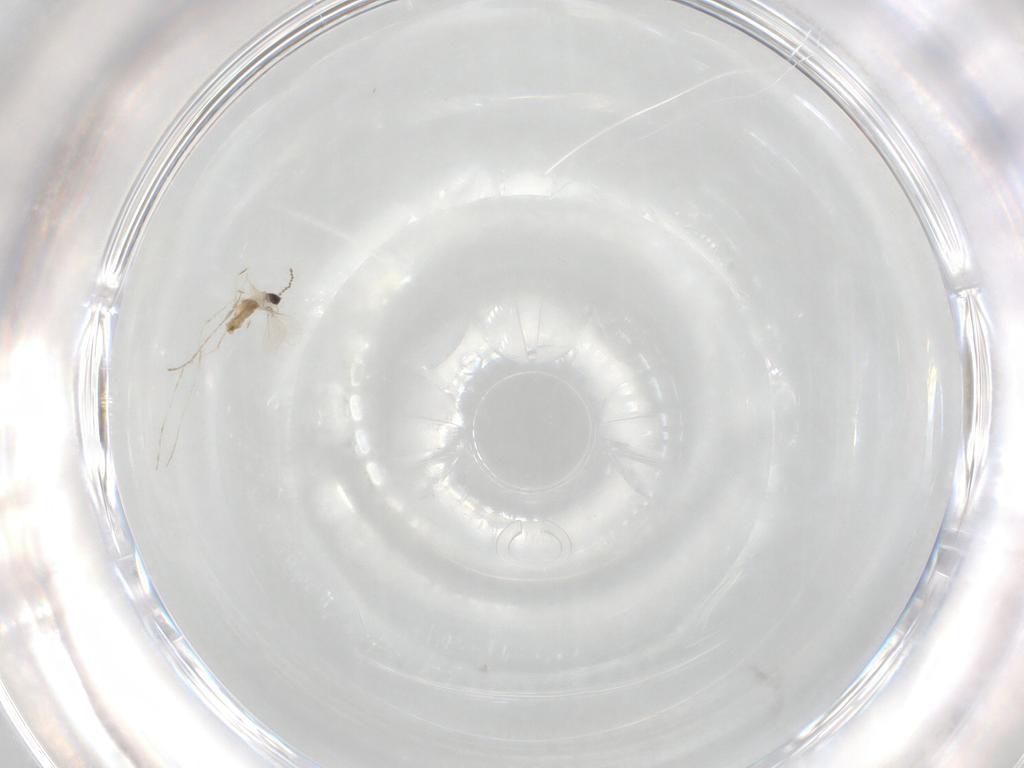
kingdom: Animalia
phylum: Arthropoda
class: Insecta
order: Diptera
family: Cecidomyiidae
